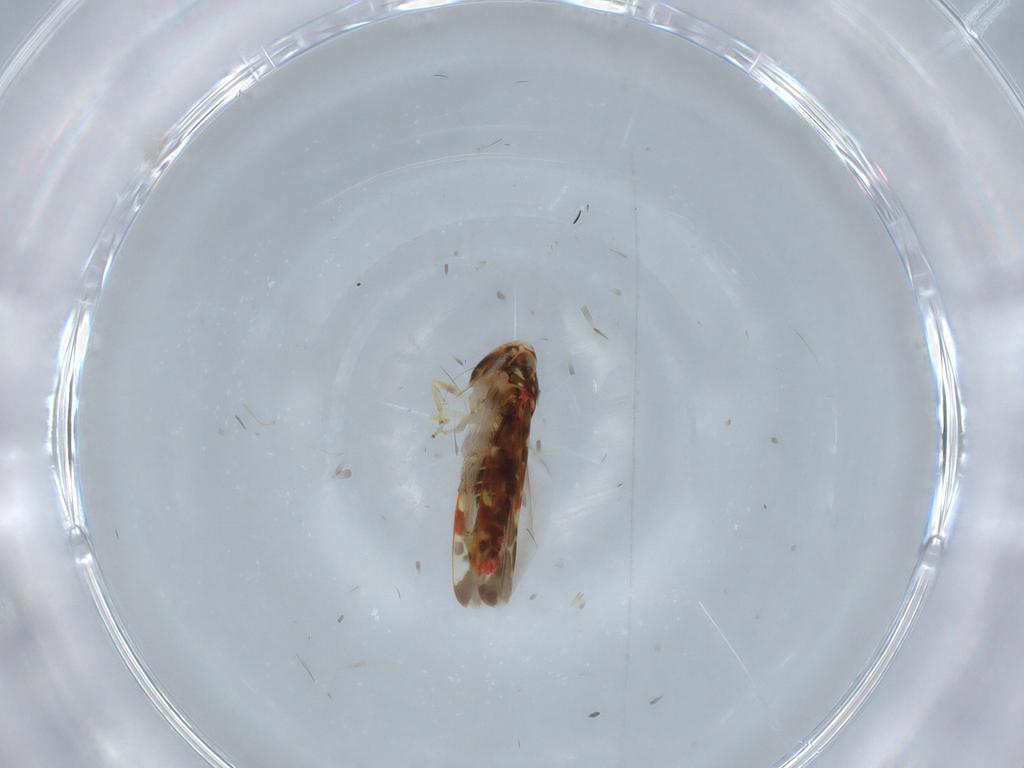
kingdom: Animalia
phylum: Arthropoda
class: Insecta
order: Hemiptera
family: Cicadellidae
